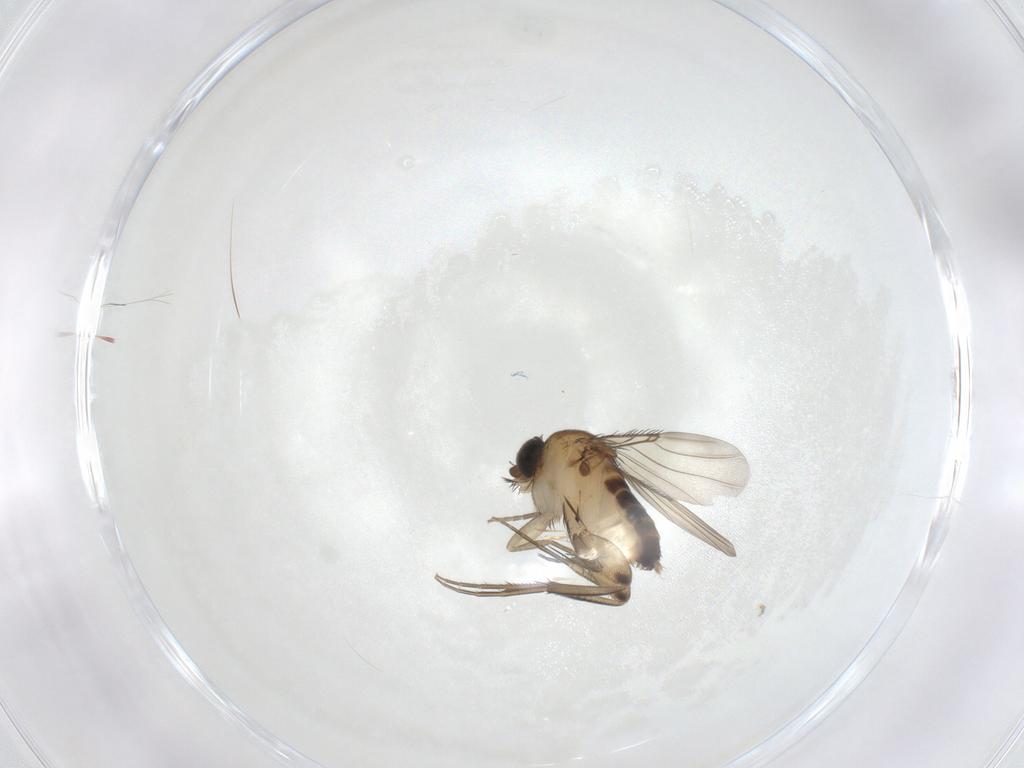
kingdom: Animalia
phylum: Arthropoda
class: Insecta
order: Diptera
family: Phoridae
